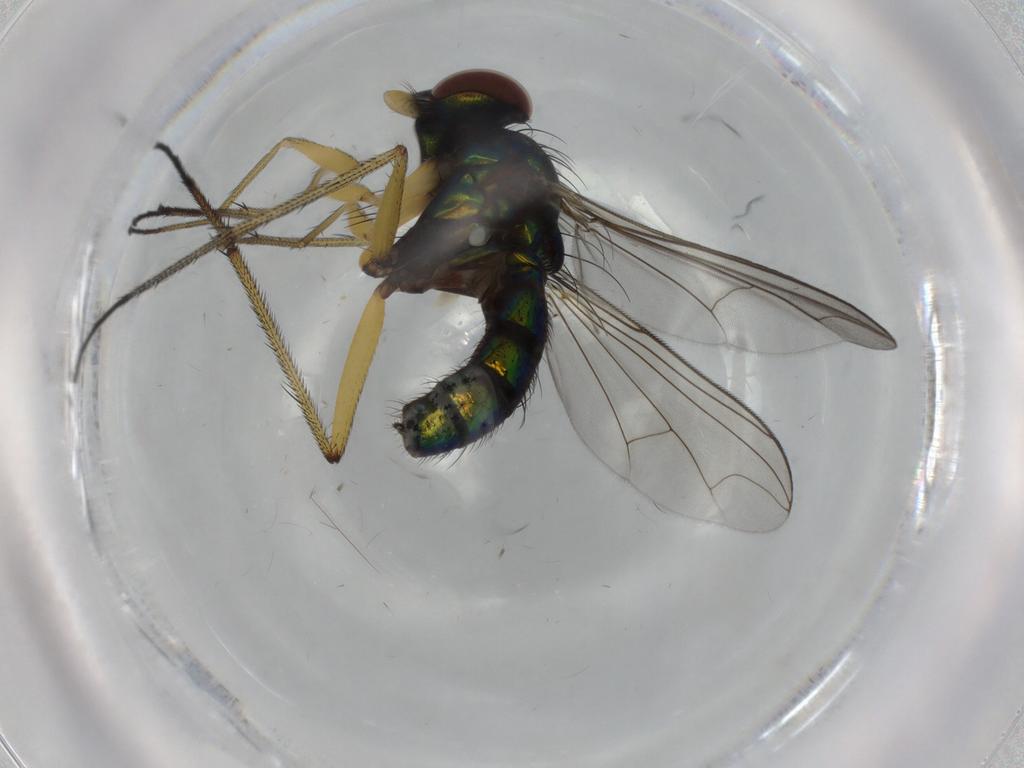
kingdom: Animalia
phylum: Arthropoda
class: Insecta
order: Diptera
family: Dolichopodidae
